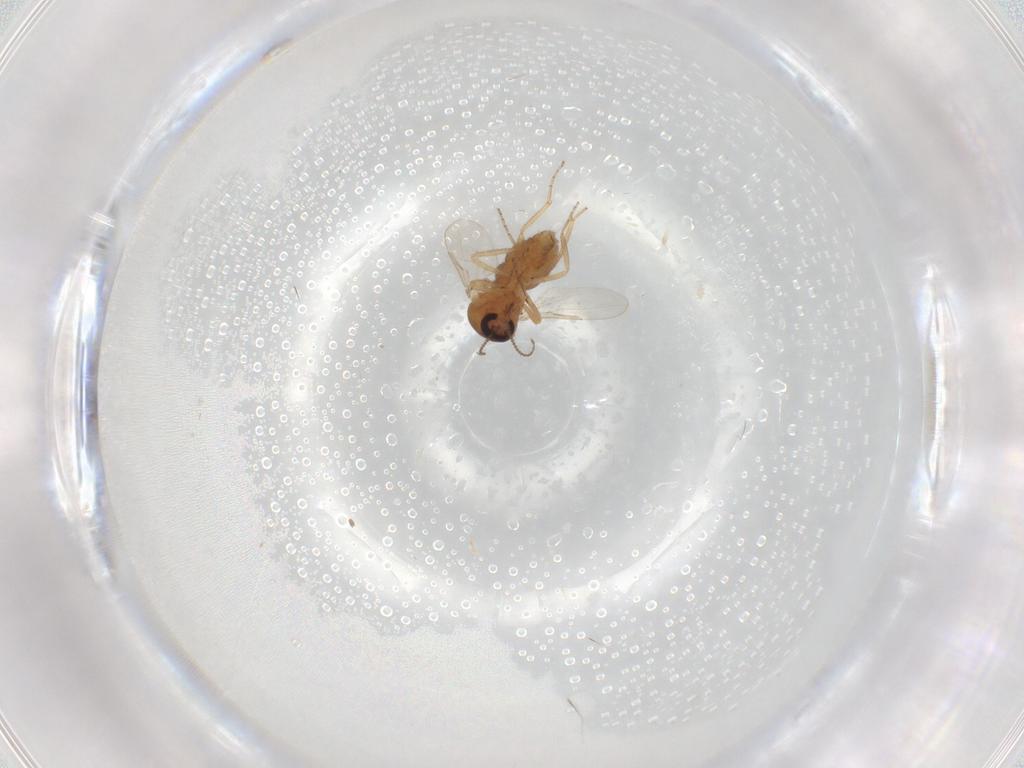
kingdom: Animalia
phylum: Arthropoda
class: Insecta
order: Diptera
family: Ceratopogonidae
